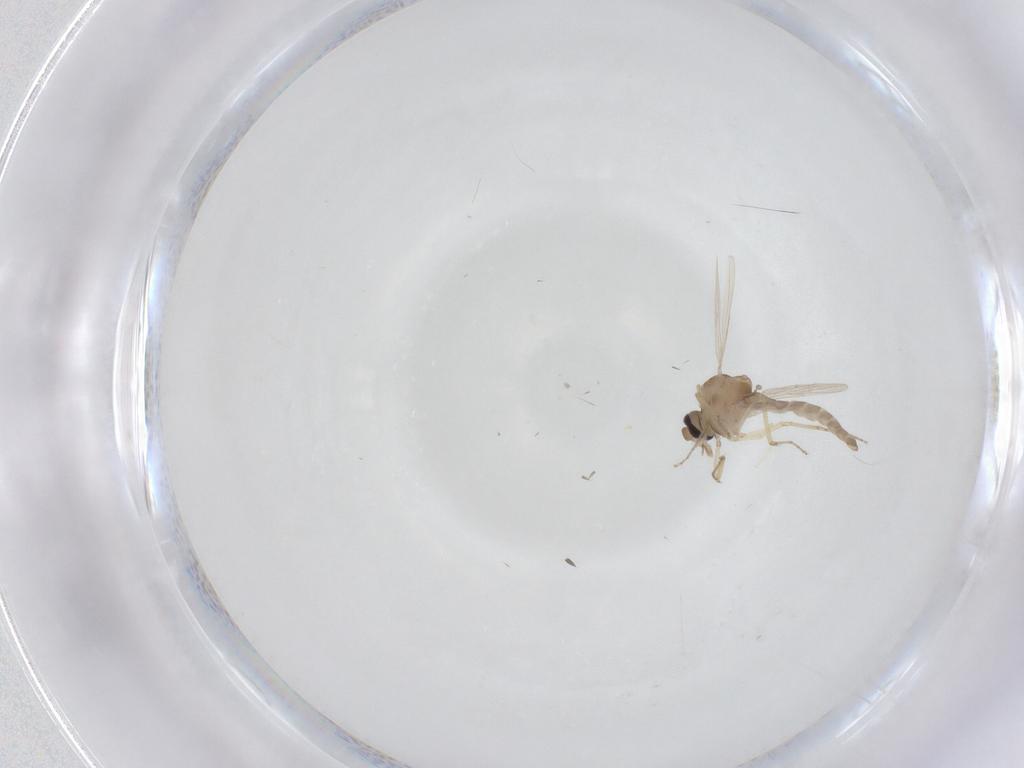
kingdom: Animalia
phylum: Arthropoda
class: Insecta
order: Diptera
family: Ceratopogonidae
